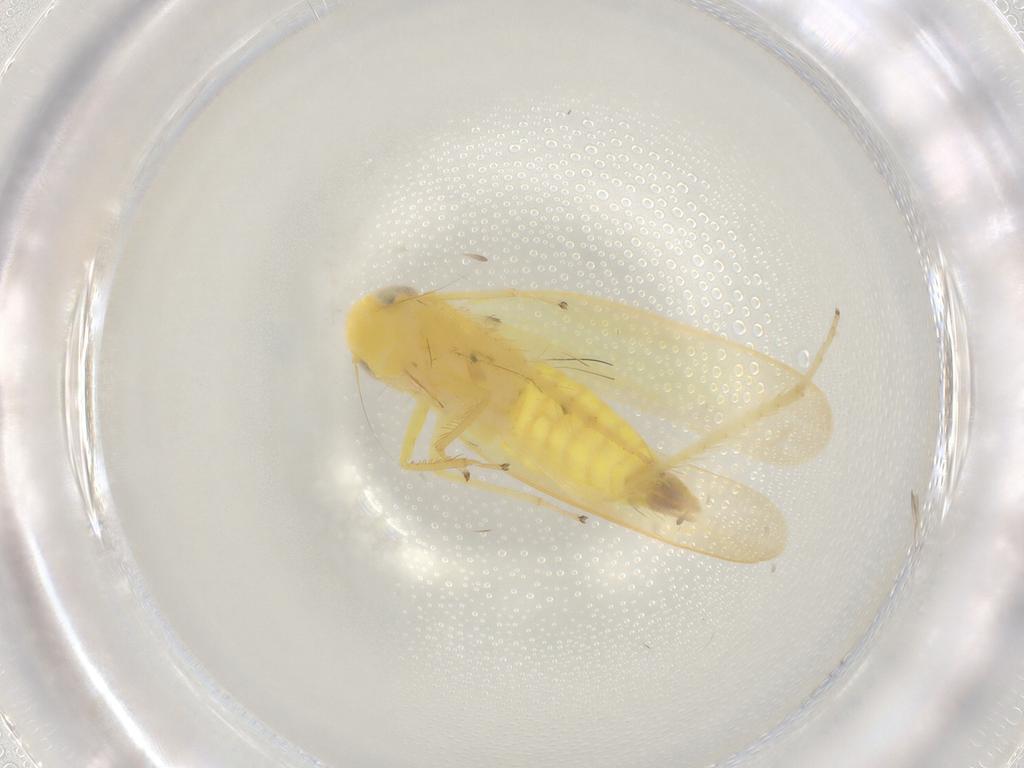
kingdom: Animalia
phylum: Arthropoda
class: Insecta
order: Hemiptera
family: Cicadellidae
